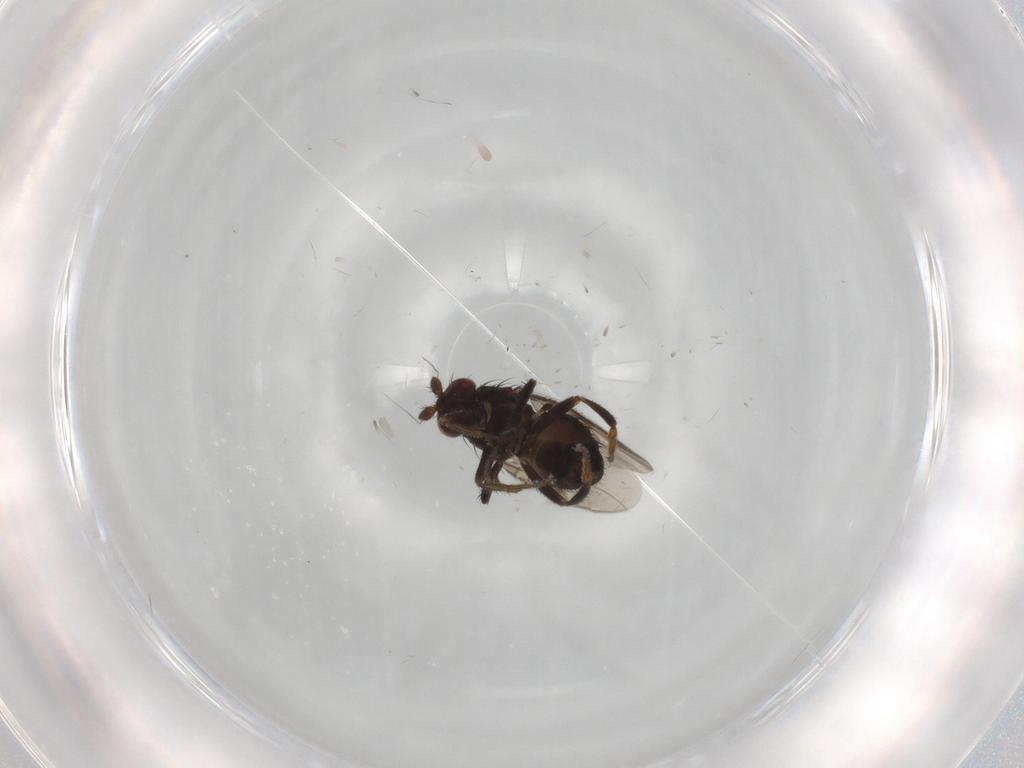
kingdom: Animalia
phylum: Arthropoda
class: Insecta
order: Diptera
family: Sphaeroceridae
